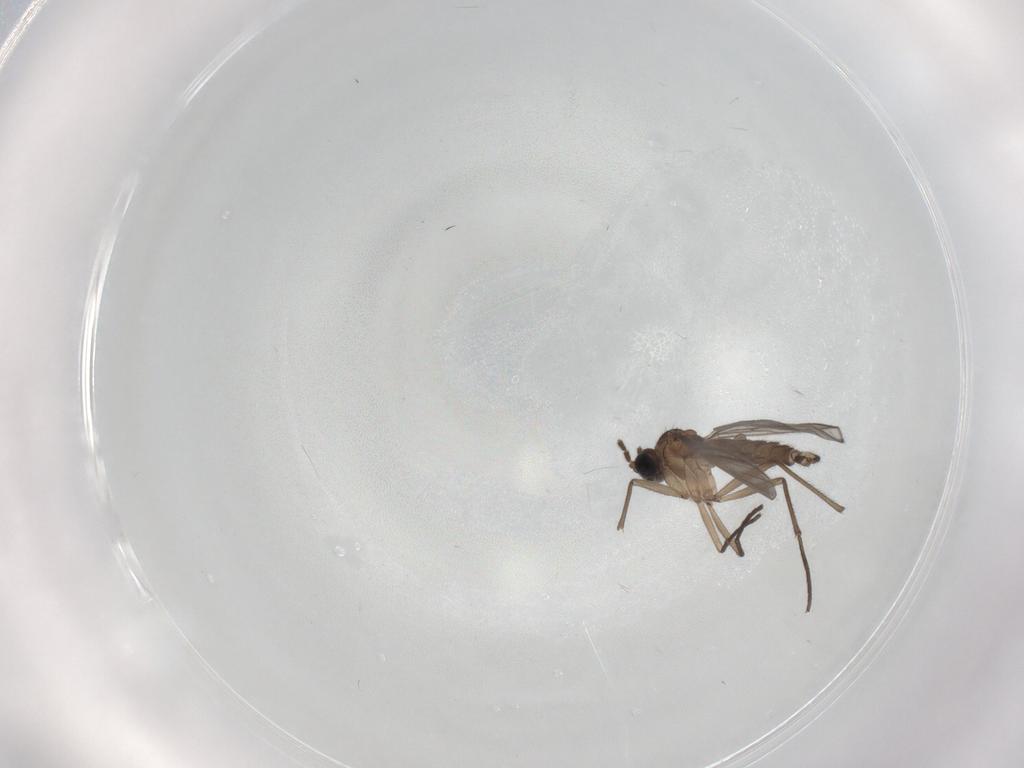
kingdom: Animalia
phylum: Arthropoda
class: Insecta
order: Diptera
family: Sciaridae
